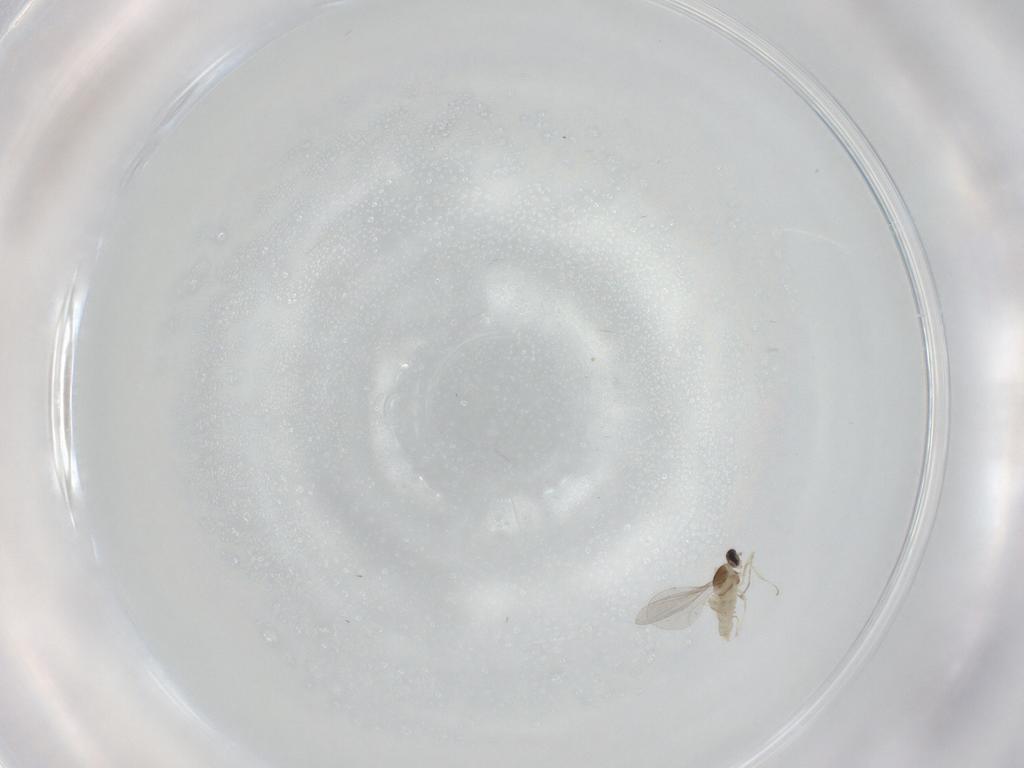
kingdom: Animalia
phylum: Arthropoda
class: Insecta
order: Diptera
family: Cecidomyiidae
